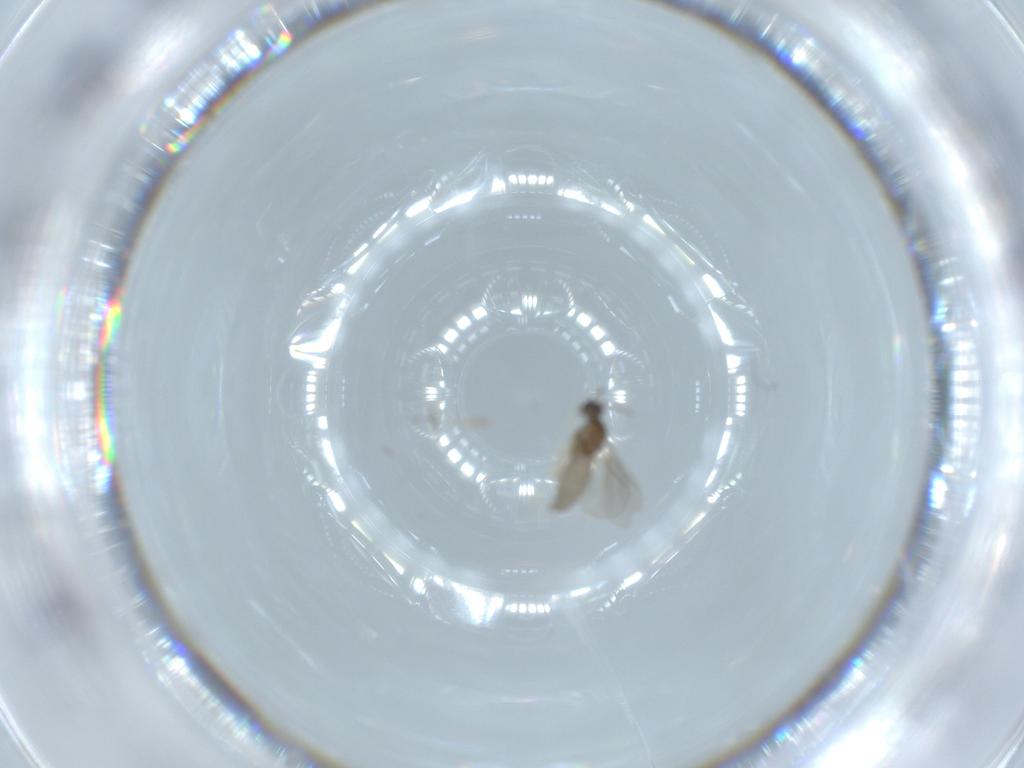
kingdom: Animalia
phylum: Arthropoda
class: Insecta
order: Diptera
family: Cecidomyiidae
